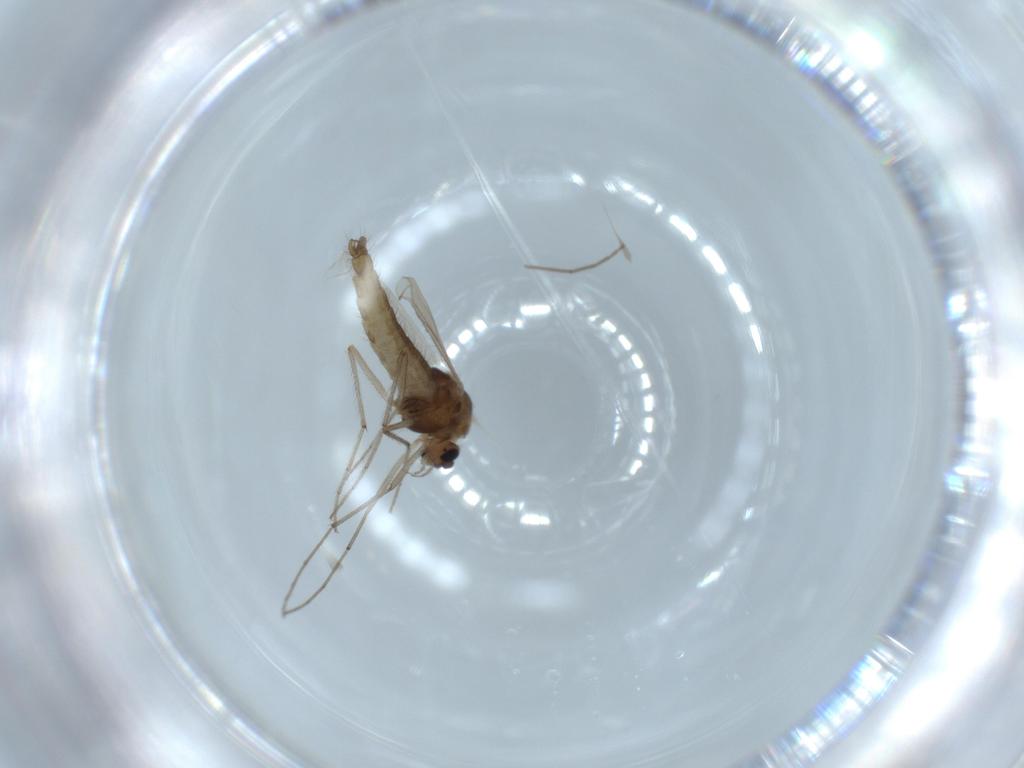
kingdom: Animalia
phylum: Arthropoda
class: Insecta
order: Diptera
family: Chironomidae
